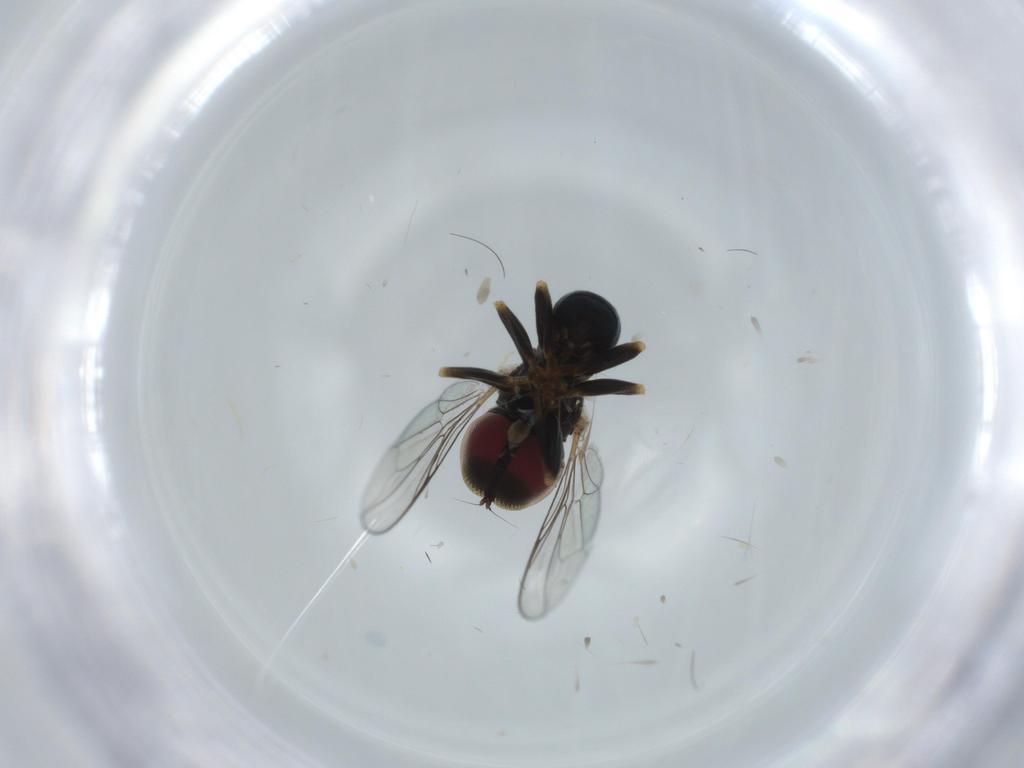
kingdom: Animalia
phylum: Arthropoda
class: Insecta
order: Diptera
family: Pipunculidae
